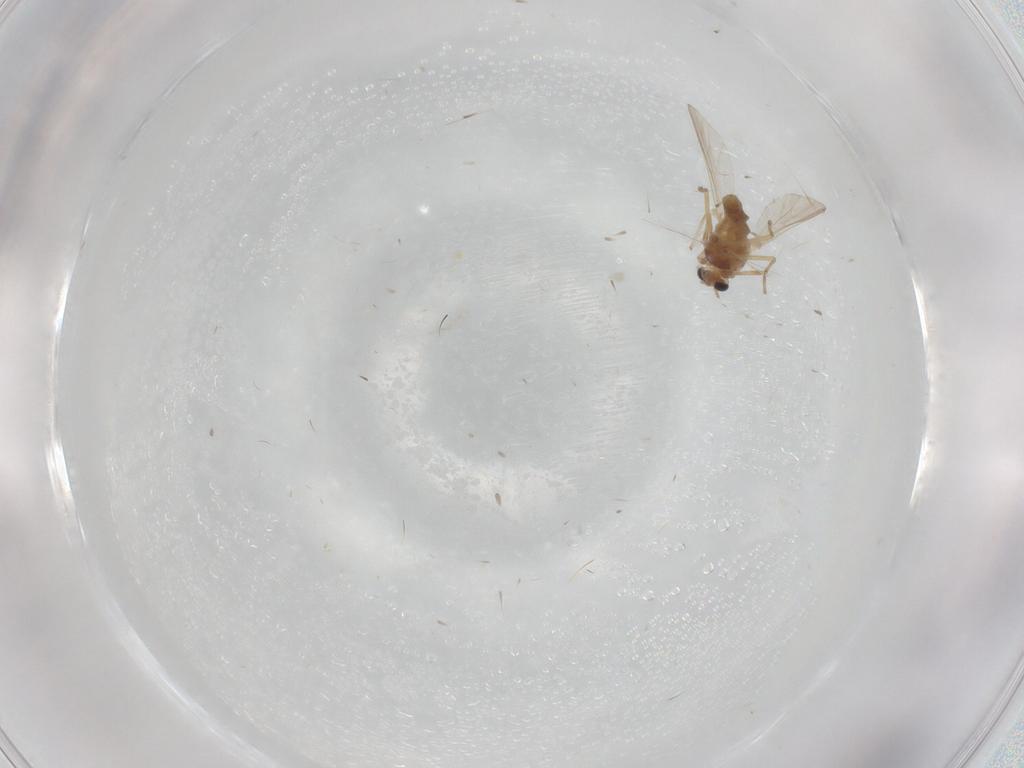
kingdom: Animalia
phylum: Arthropoda
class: Insecta
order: Diptera
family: Chironomidae
